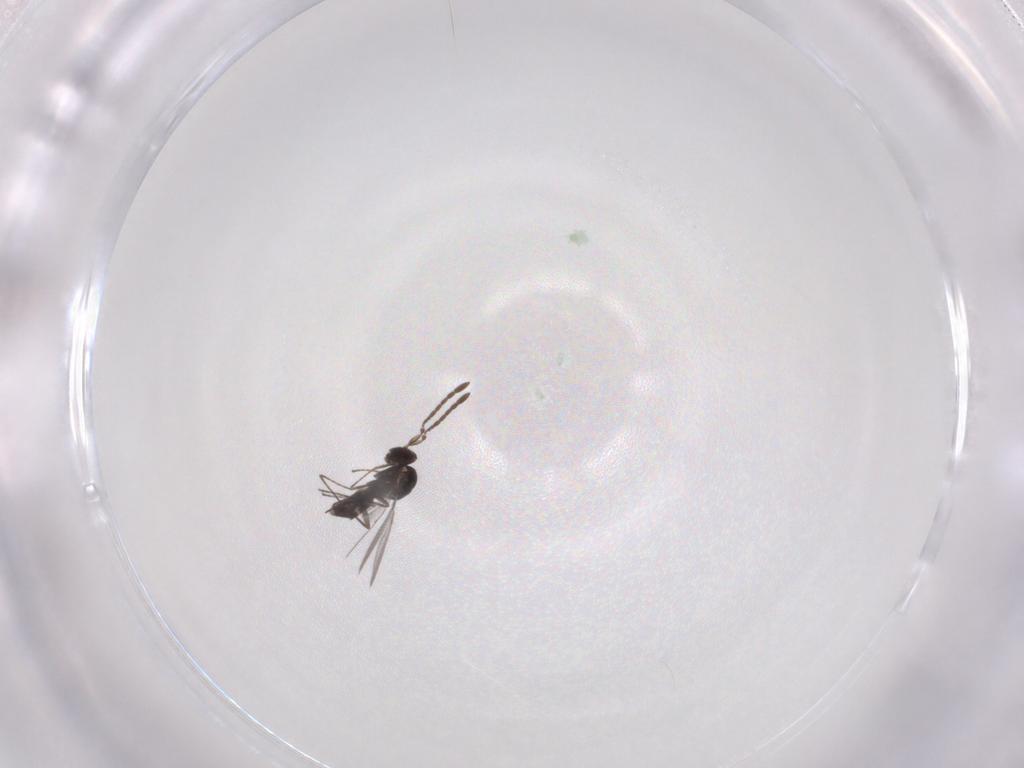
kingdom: Animalia
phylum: Arthropoda
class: Insecta
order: Hymenoptera
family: Mymaridae
